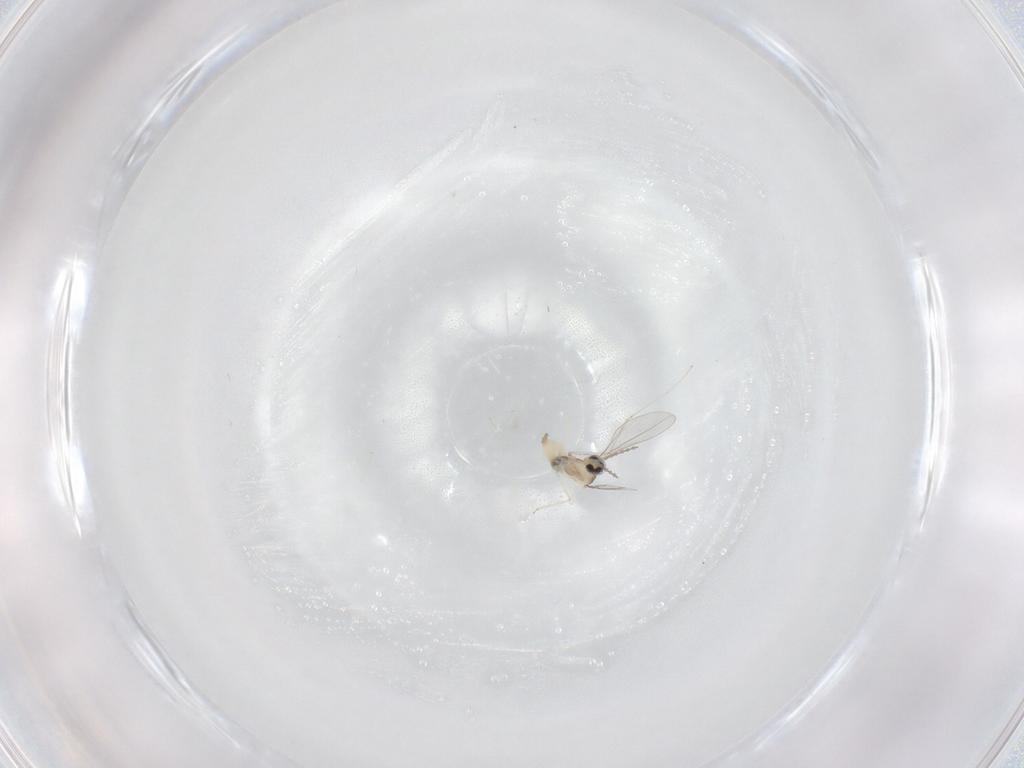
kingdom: Animalia
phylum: Arthropoda
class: Insecta
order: Diptera
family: Cecidomyiidae
